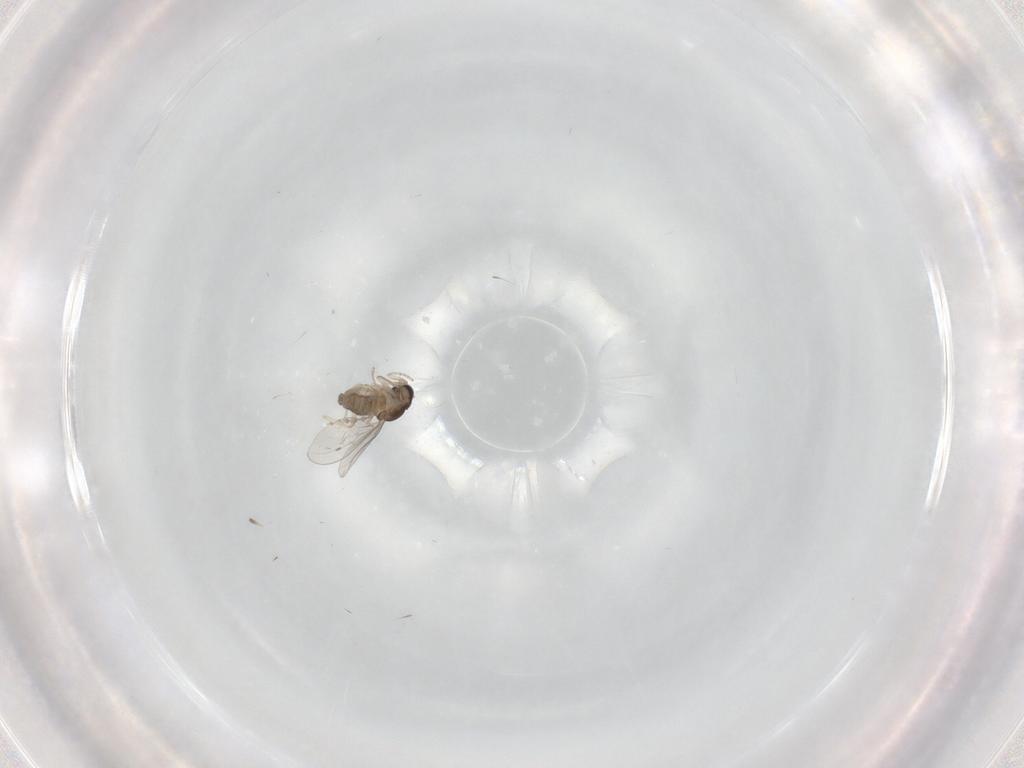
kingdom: Animalia
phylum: Arthropoda
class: Insecta
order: Diptera
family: Cecidomyiidae
